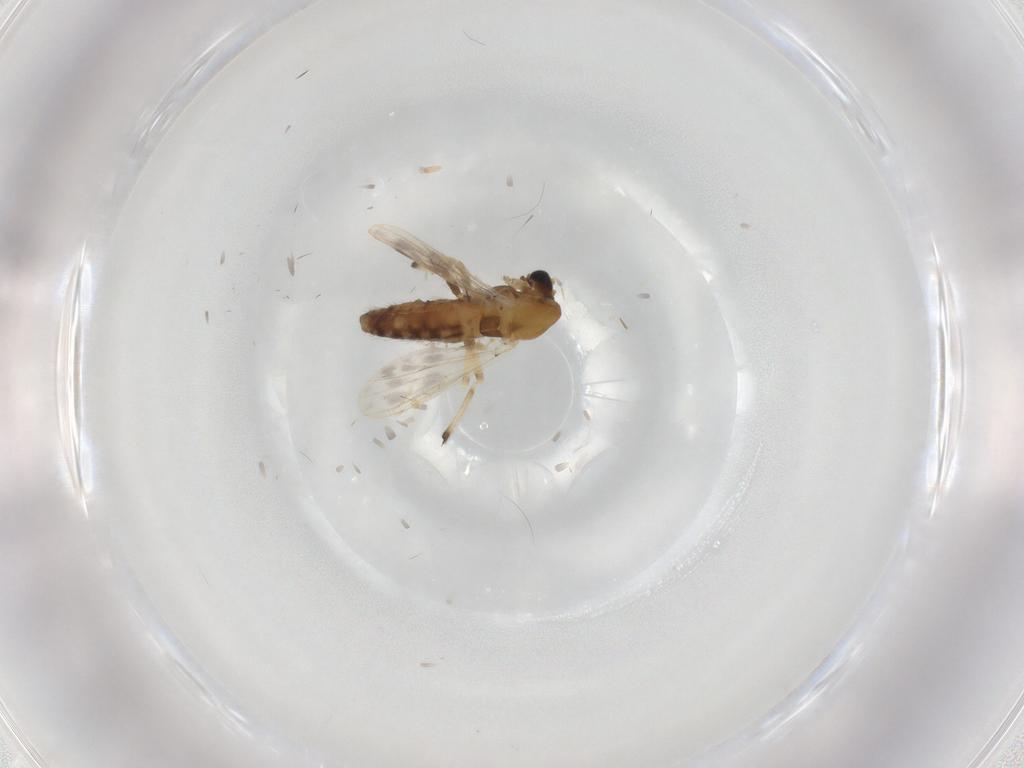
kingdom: Animalia
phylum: Arthropoda
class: Insecta
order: Diptera
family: Chironomidae
